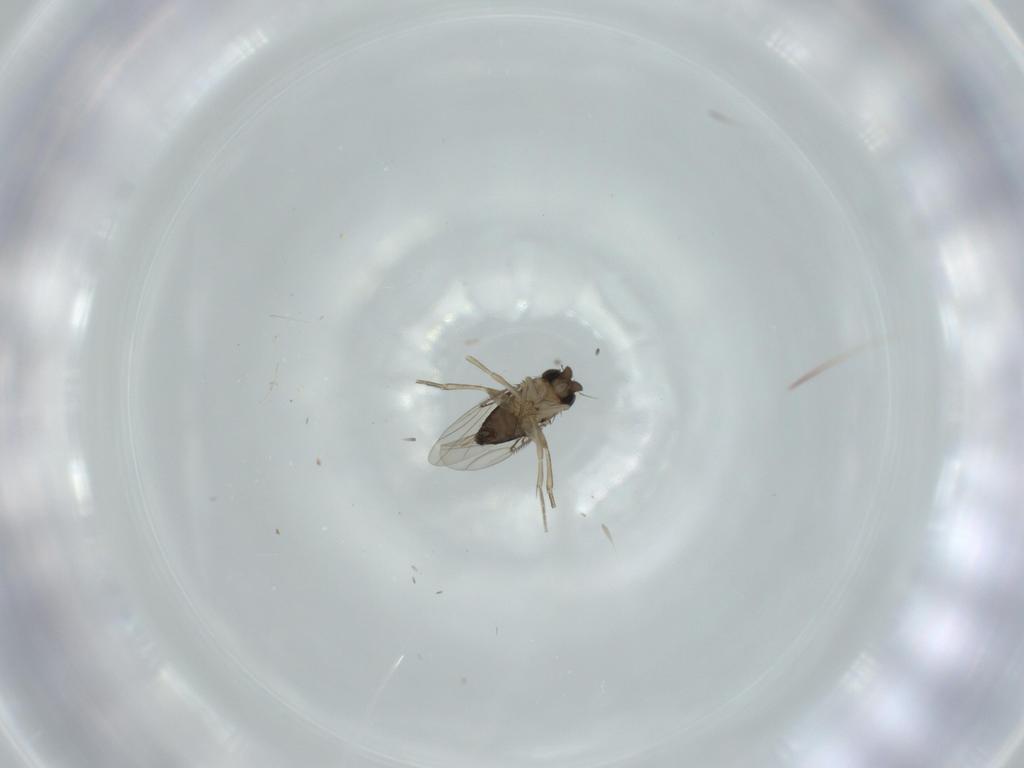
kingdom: Animalia
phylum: Arthropoda
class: Insecta
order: Diptera
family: Phoridae
